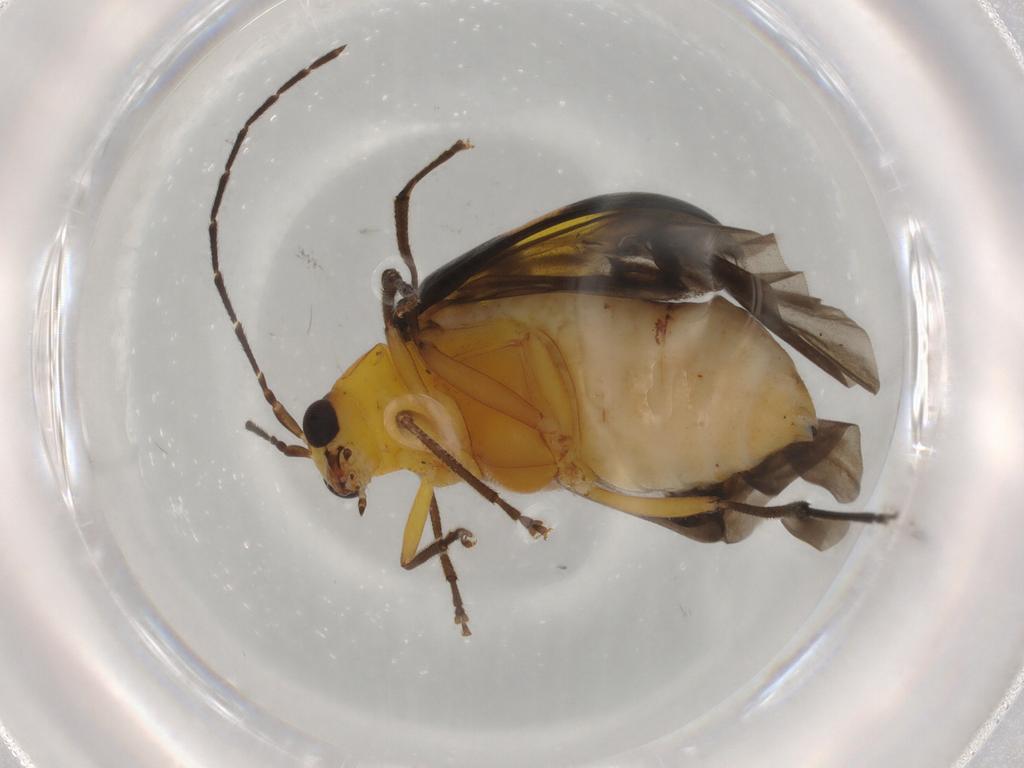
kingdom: Animalia
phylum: Arthropoda
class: Insecta
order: Coleoptera
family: Chrysomelidae
